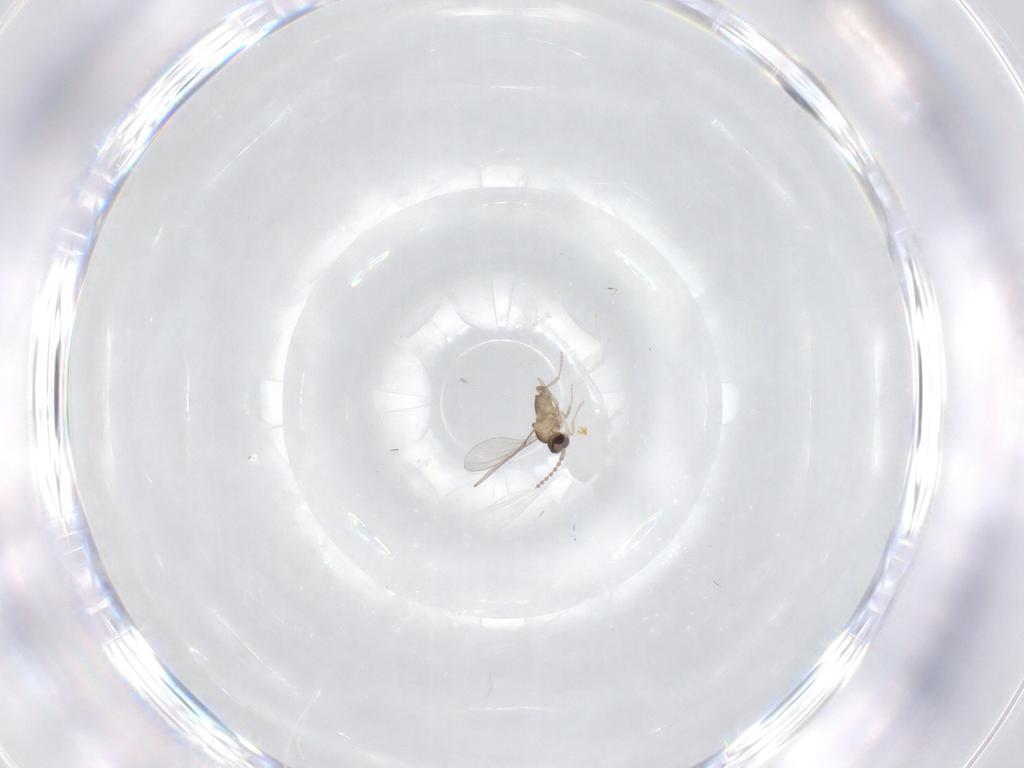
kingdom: Animalia
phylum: Arthropoda
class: Insecta
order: Diptera
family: Cecidomyiidae
